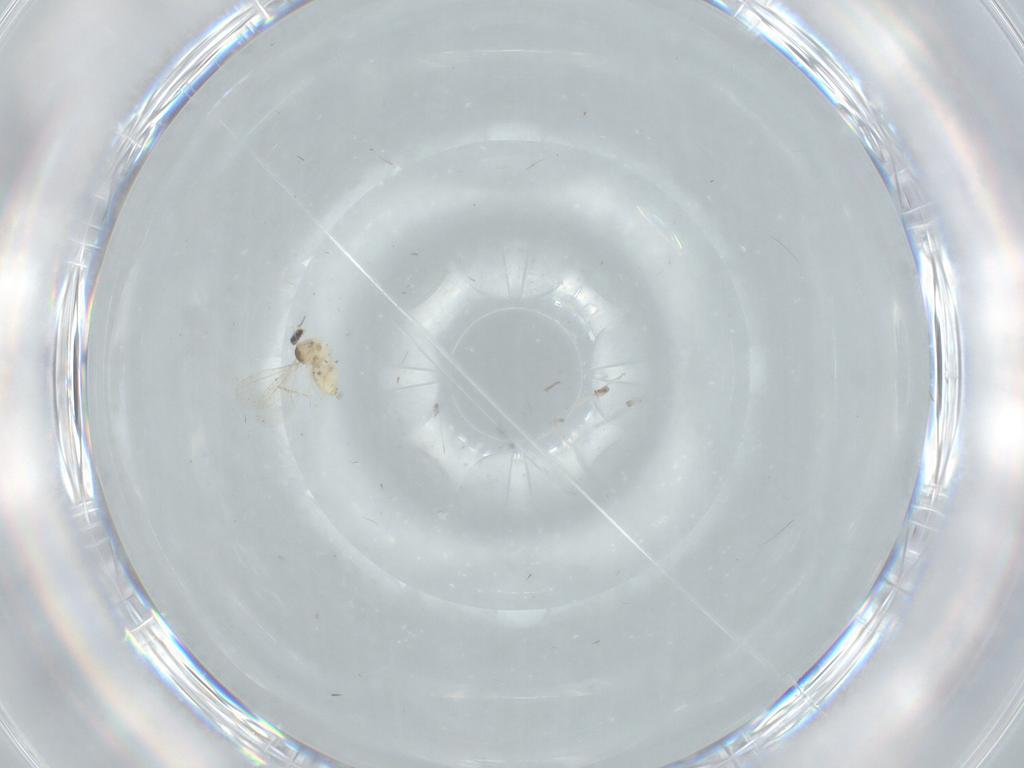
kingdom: Animalia
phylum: Arthropoda
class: Insecta
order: Diptera
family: Cecidomyiidae
